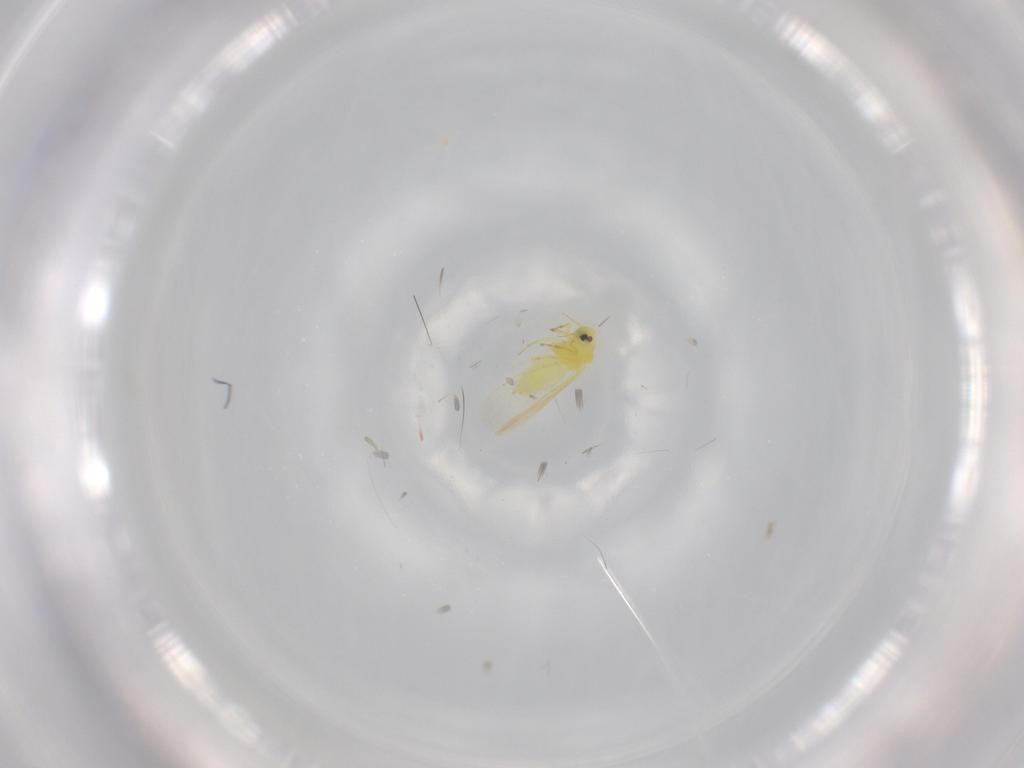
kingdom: Animalia
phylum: Arthropoda
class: Insecta
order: Hemiptera
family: Aleyrodidae
